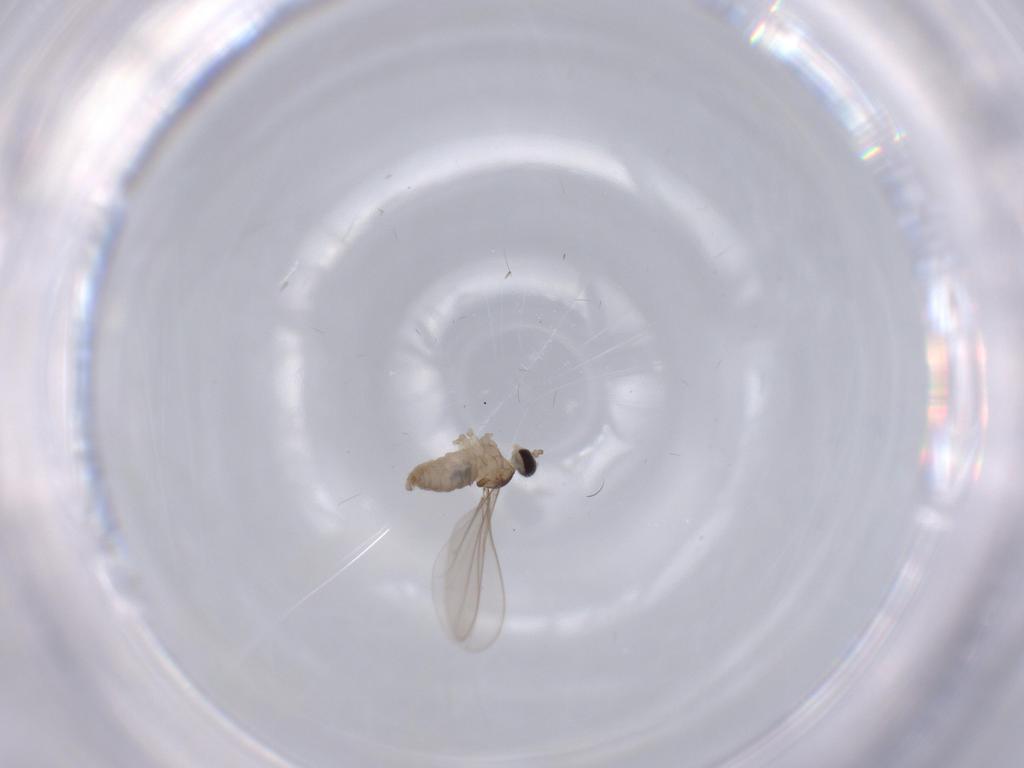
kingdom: Animalia
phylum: Arthropoda
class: Insecta
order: Diptera
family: Cecidomyiidae
